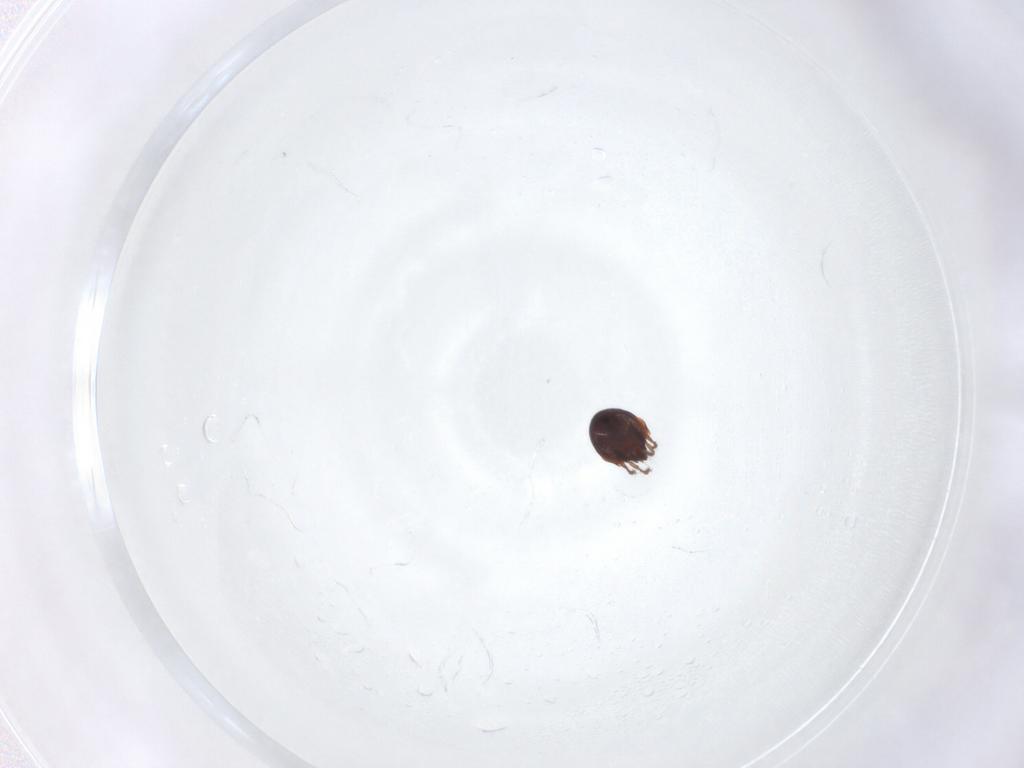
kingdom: Animalia
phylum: Arthropoda
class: Arachnida
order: Sarcoptiformes
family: Ceratozetidae
